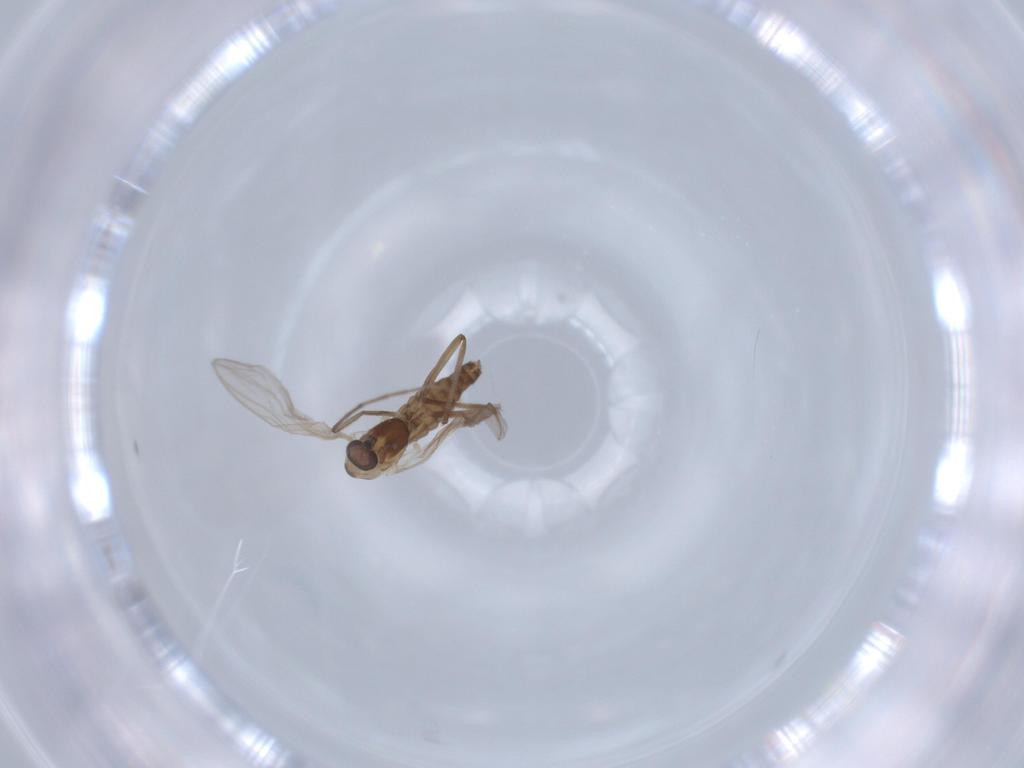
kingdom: Animalia
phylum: Arthropoda
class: Insecta
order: Diptera
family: Chironomidae
